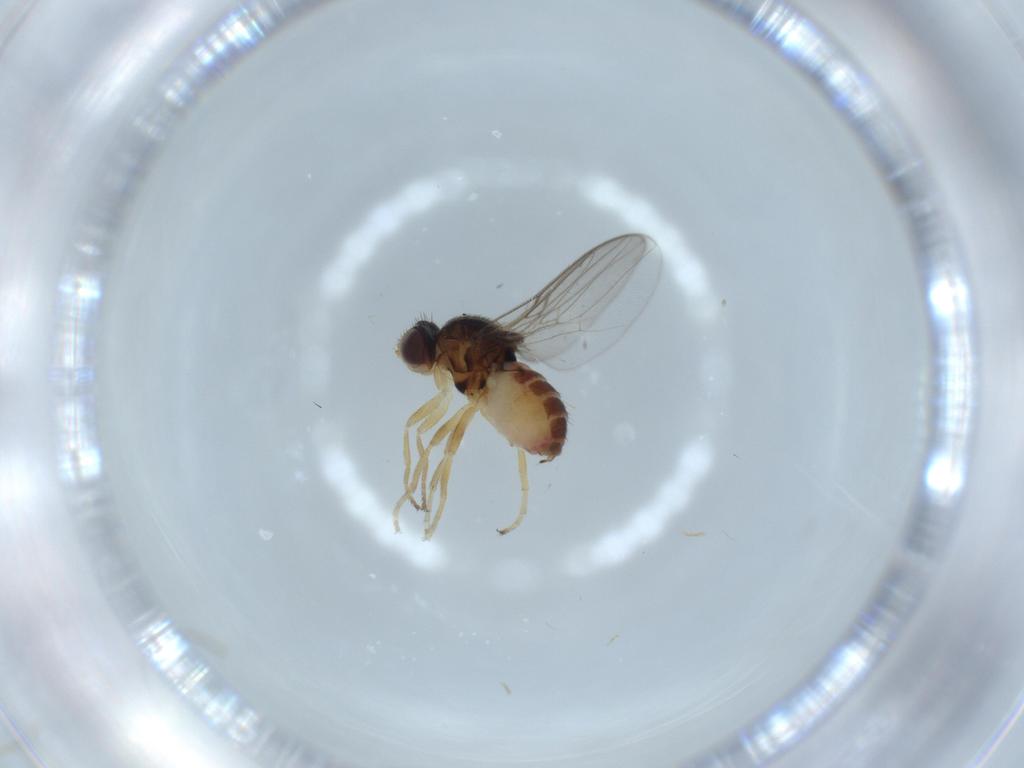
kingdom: Animalia
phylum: Arthropoda
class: Insecta
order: Diptera
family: Chloropidae
